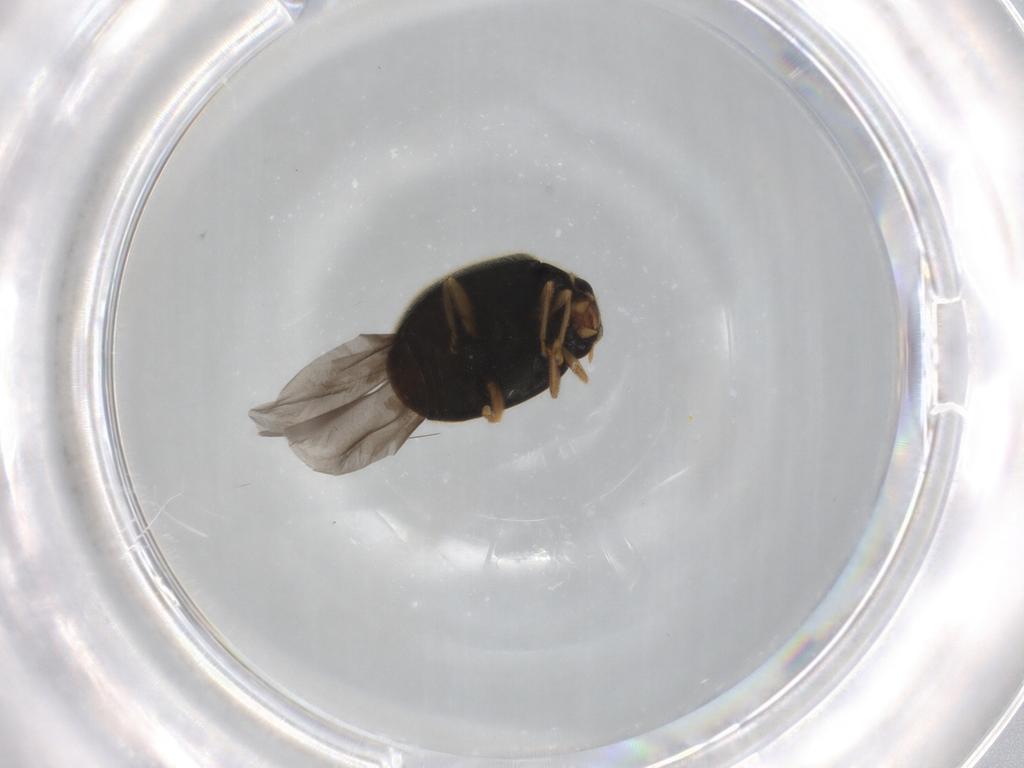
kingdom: Animalia
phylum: Arthropoda
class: Insecta
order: Coleoptera
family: Coccinellidae
